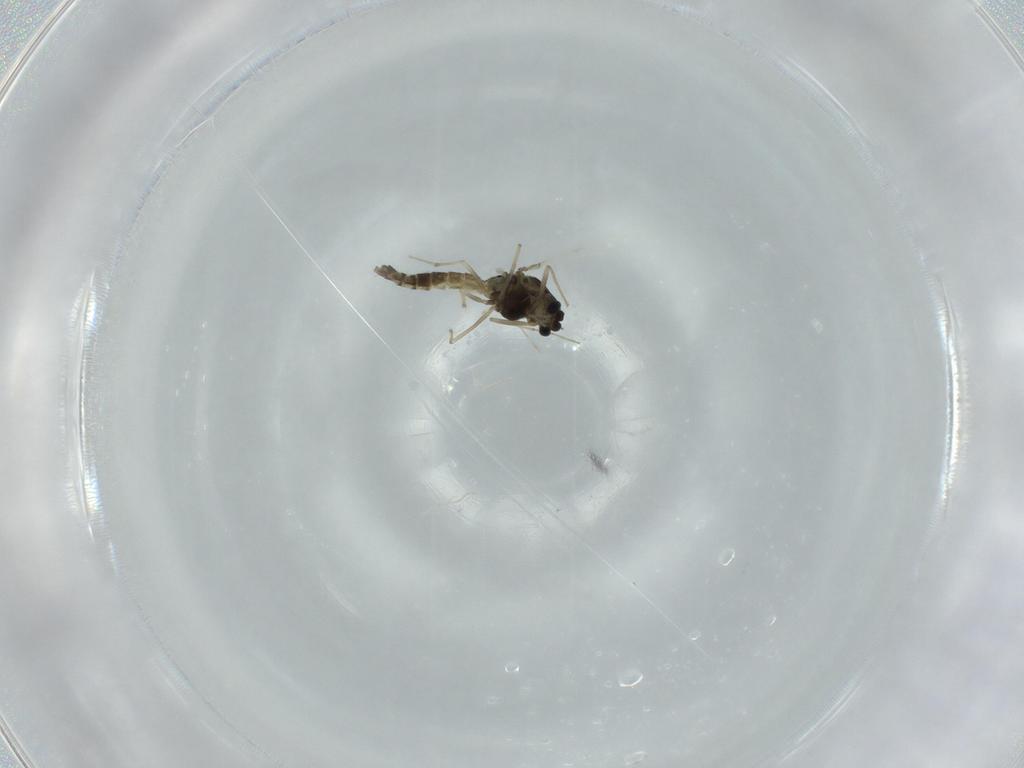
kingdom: Animalia
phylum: Arthropoda
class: Insecta
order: Diptera
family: Chironomidae
